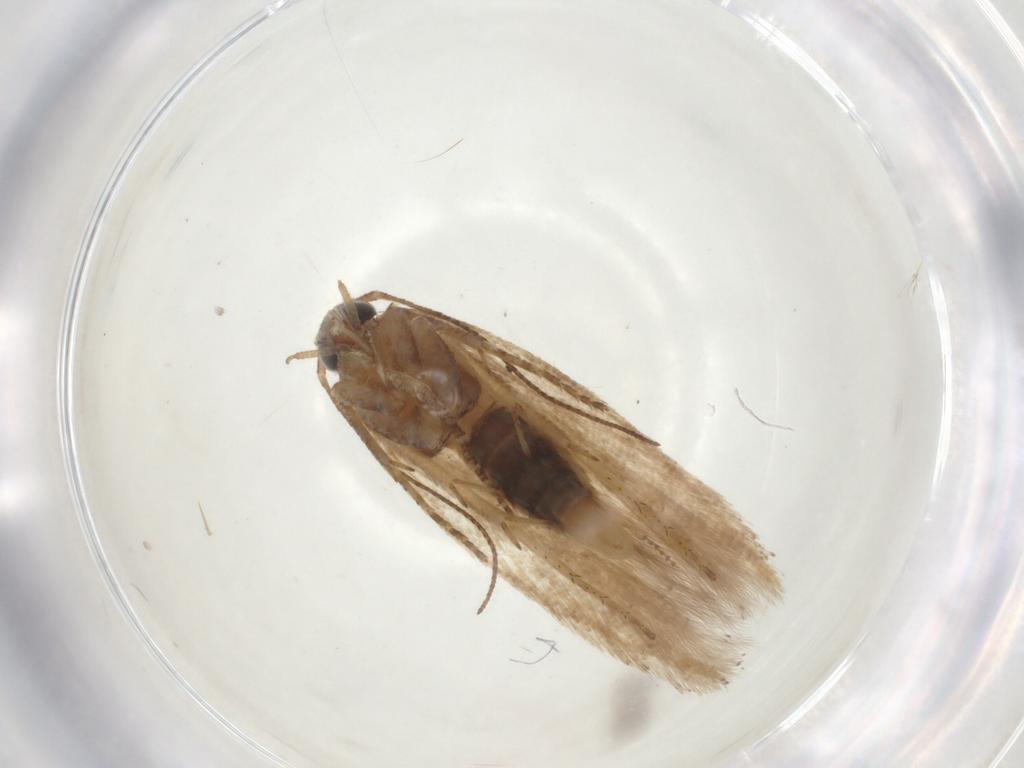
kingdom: Animalia
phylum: Arthropoda
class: Insecta
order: Lepidoptera
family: Gelechiidae
